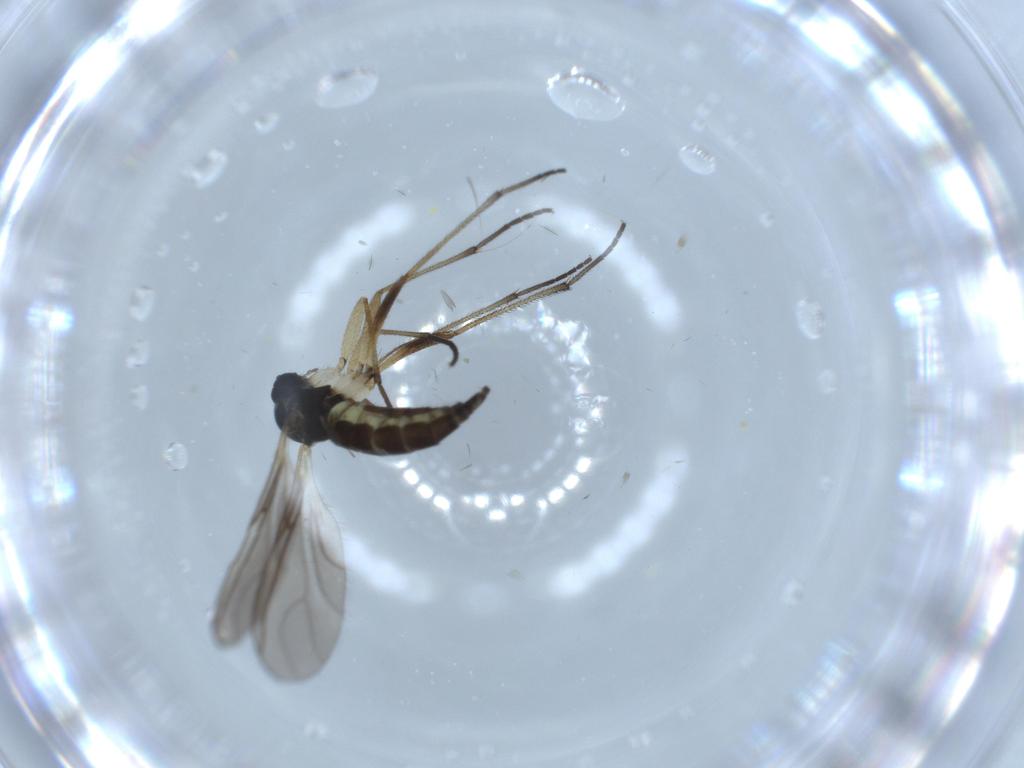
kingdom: Animalia
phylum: Arthropoda
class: Insecta
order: Diptera
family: Sciaridae
